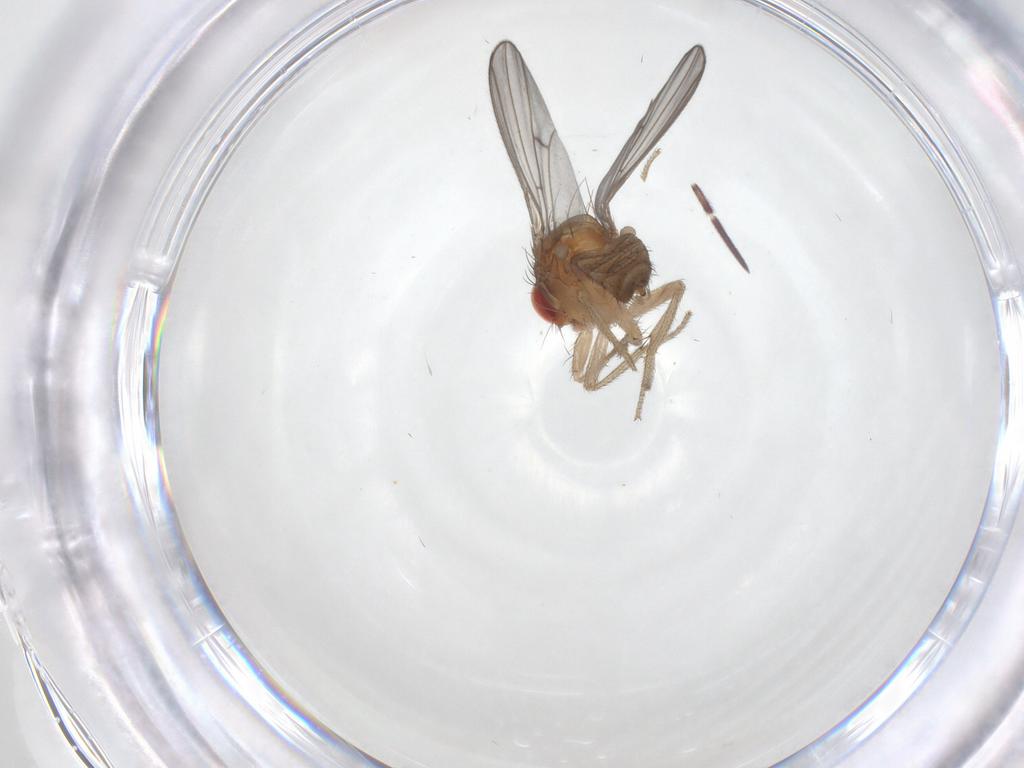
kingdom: Animalia
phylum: Arthropoda
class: Insecta
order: Diptera
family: Drosophilidae
